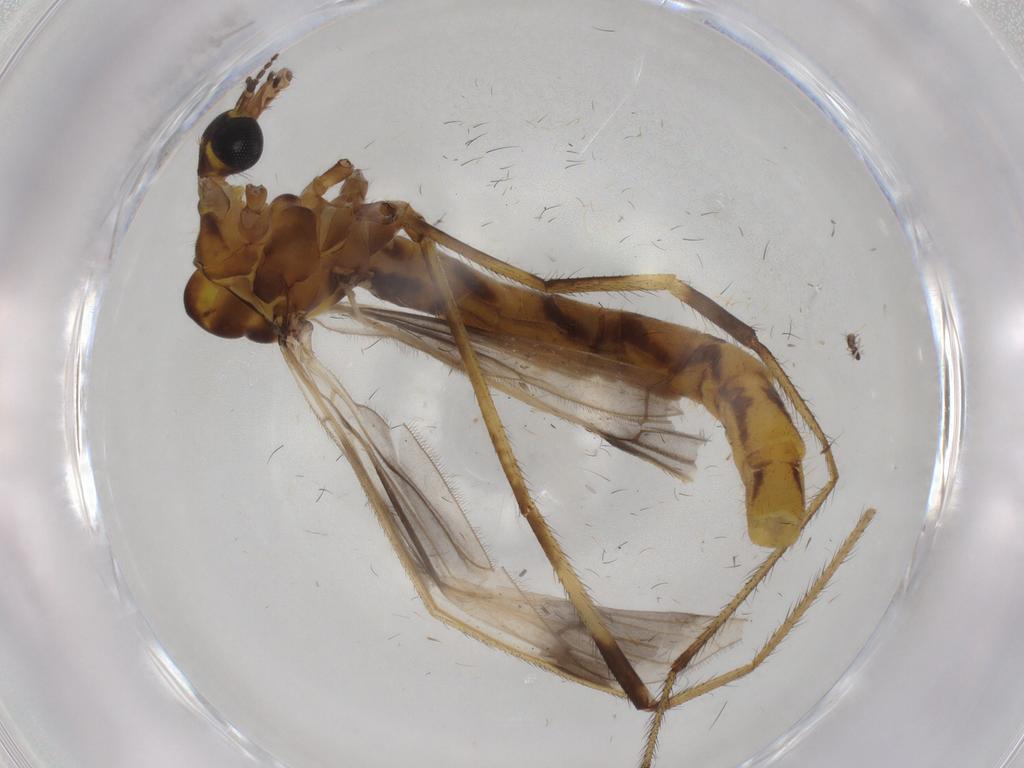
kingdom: Animalia
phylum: Arthropoda
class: Insecta
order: Diptera
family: Limoniidae
